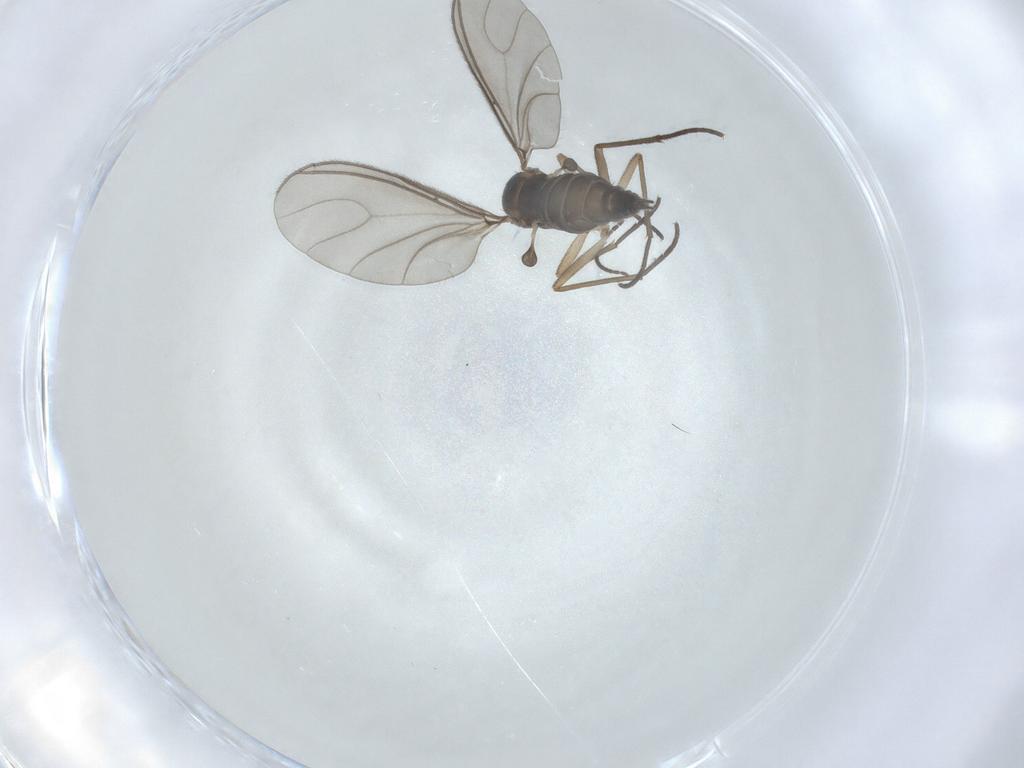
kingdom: Animalia
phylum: Arthropoda
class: Insecta
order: Diptera
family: Sciaridae
